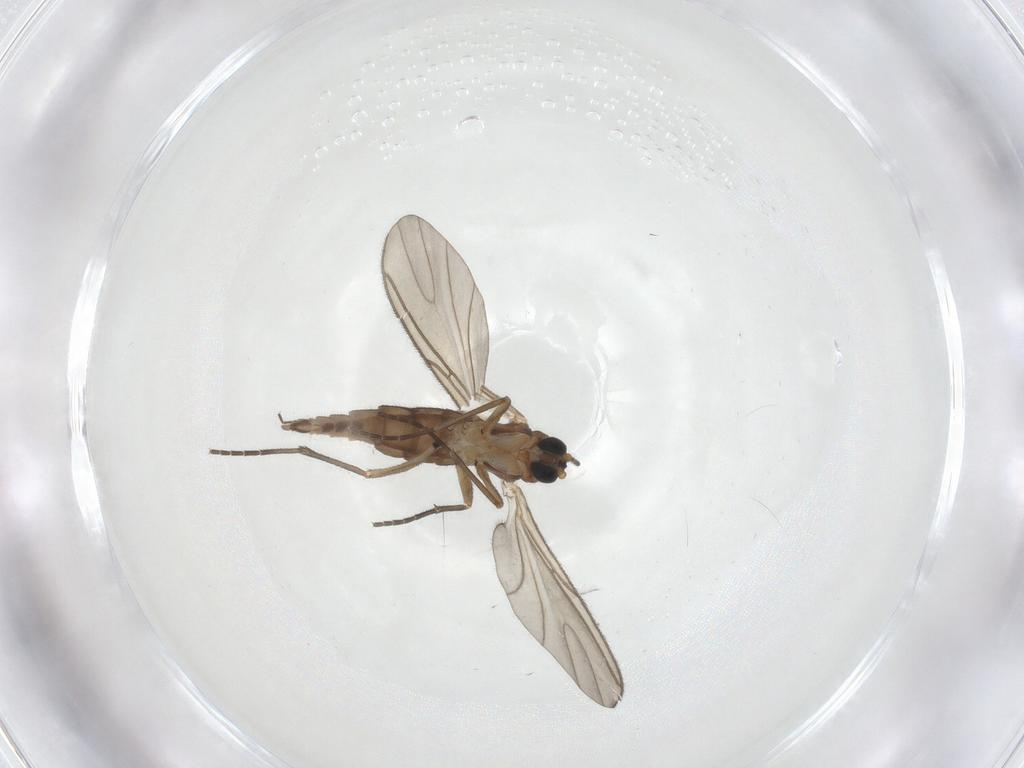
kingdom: Animalia
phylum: Arthropoda
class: Insecta
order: Diptera
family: Sciaridae
